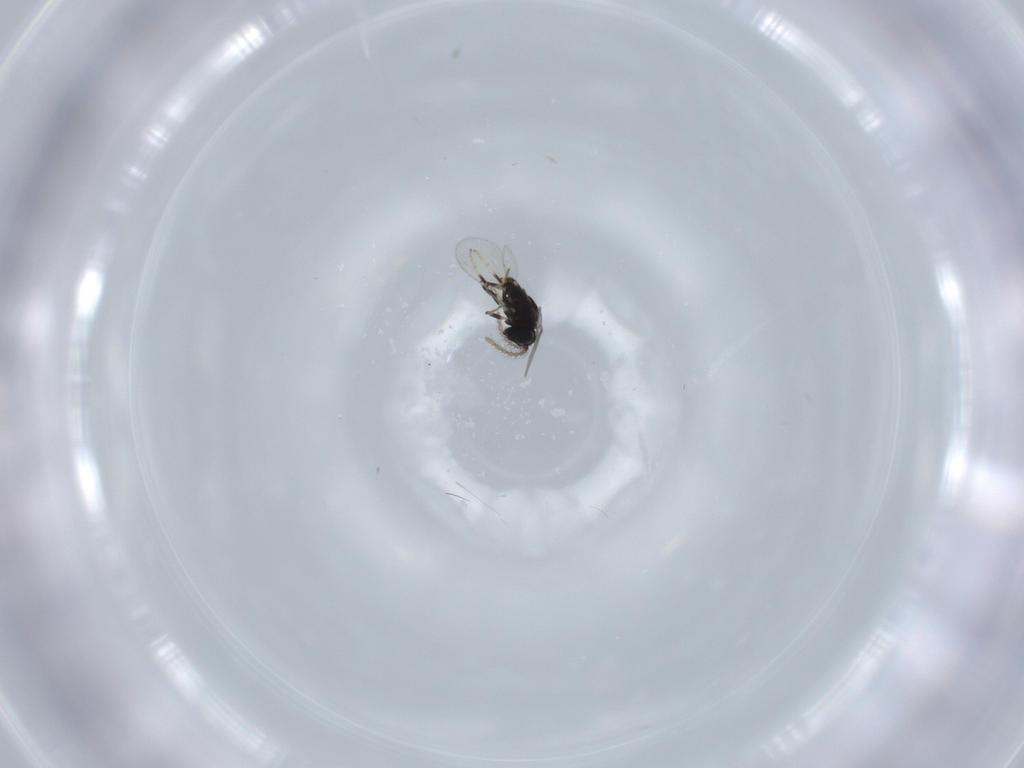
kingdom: Animalia
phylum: Arthropoda
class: Insecta
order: Hymenoptera
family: Encyrtidae
